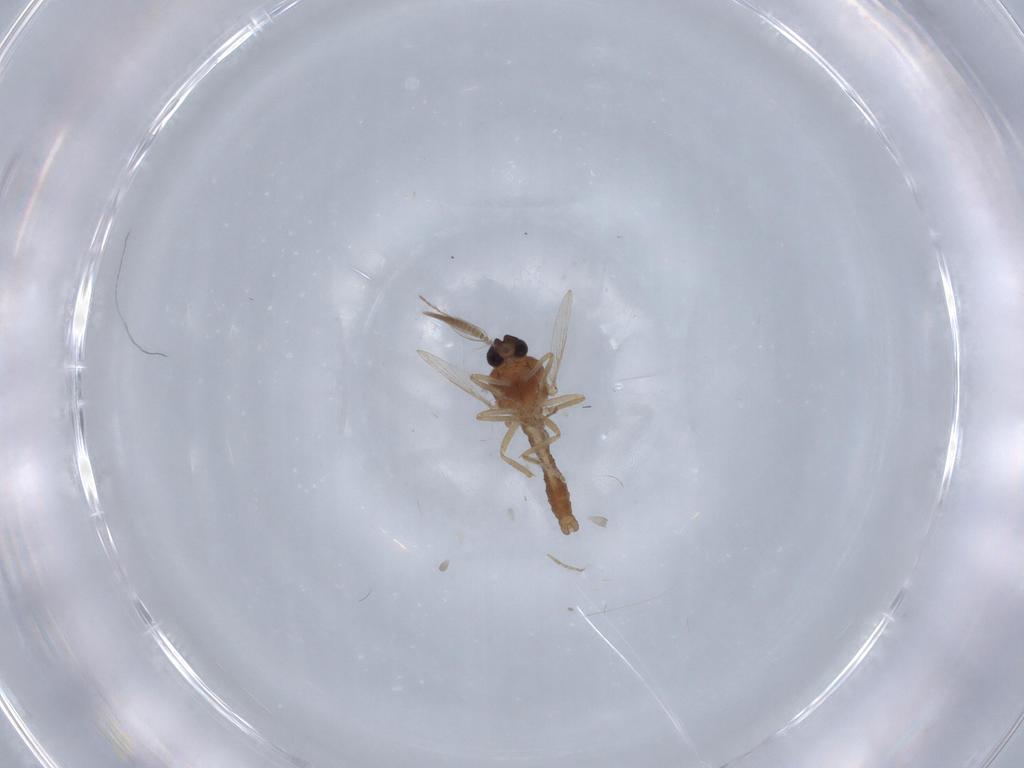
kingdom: Animalia
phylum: Arthropoda
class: Insecta
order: Diptera
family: Ceratopogonidae
